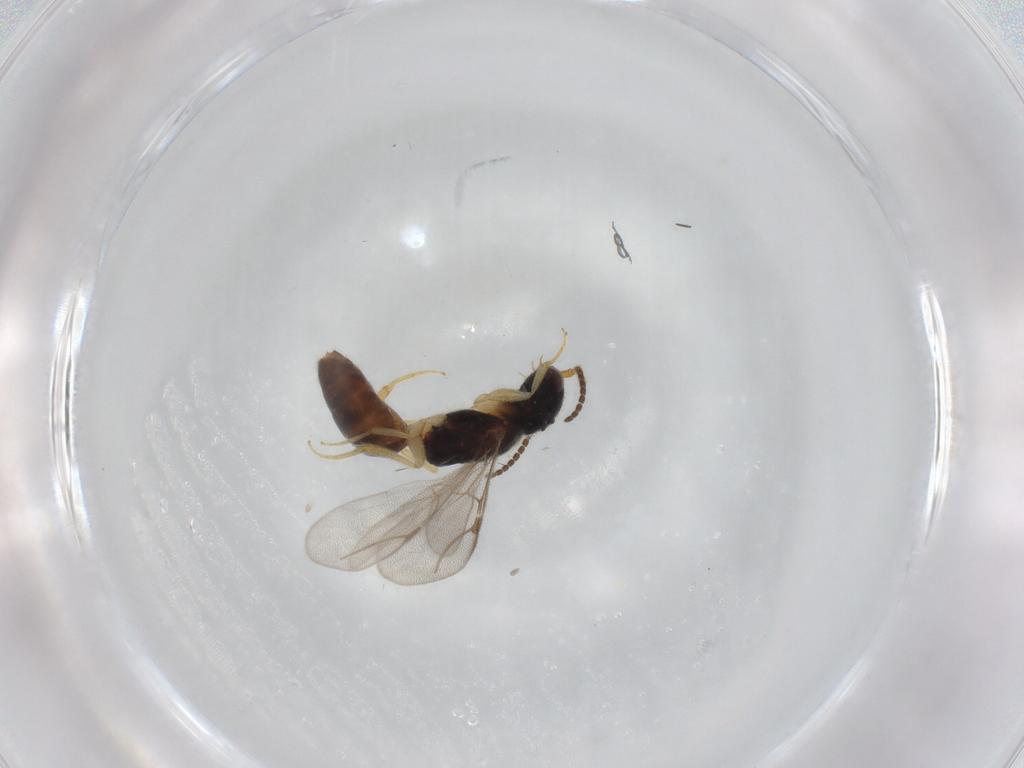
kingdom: Animalia
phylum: Arthropoda
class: Insecta
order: Hymenoptera
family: Bethylidae
